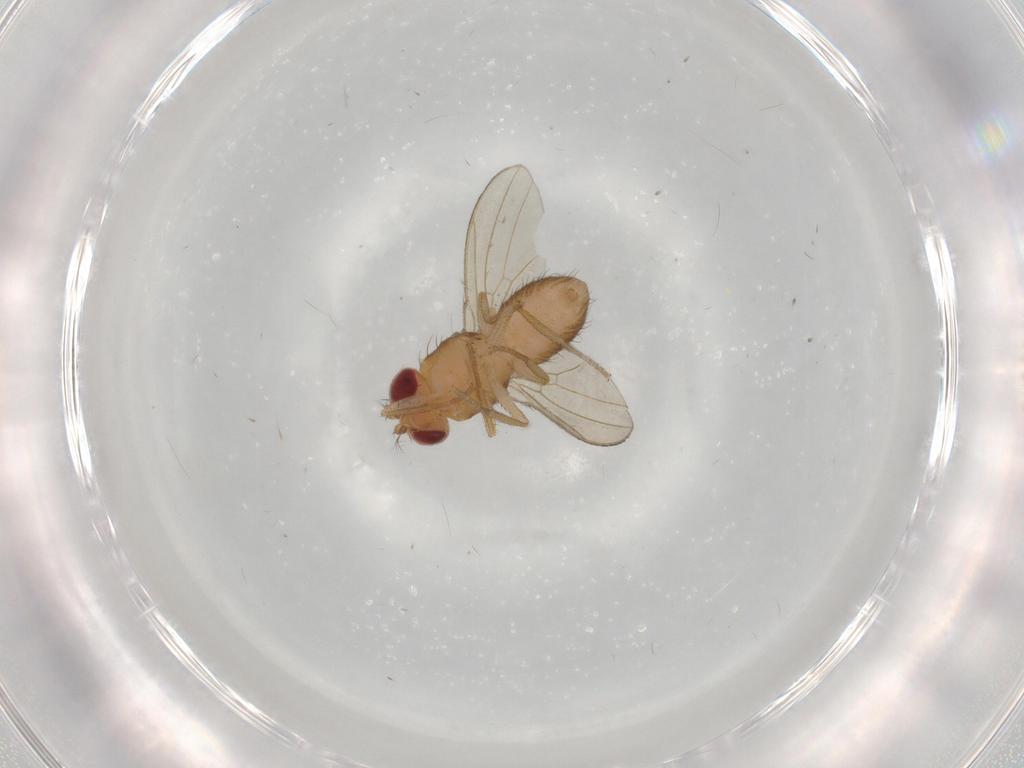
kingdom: Animalia
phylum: Arthropoda
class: Insecta
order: Diptera
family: Drosophilidae
